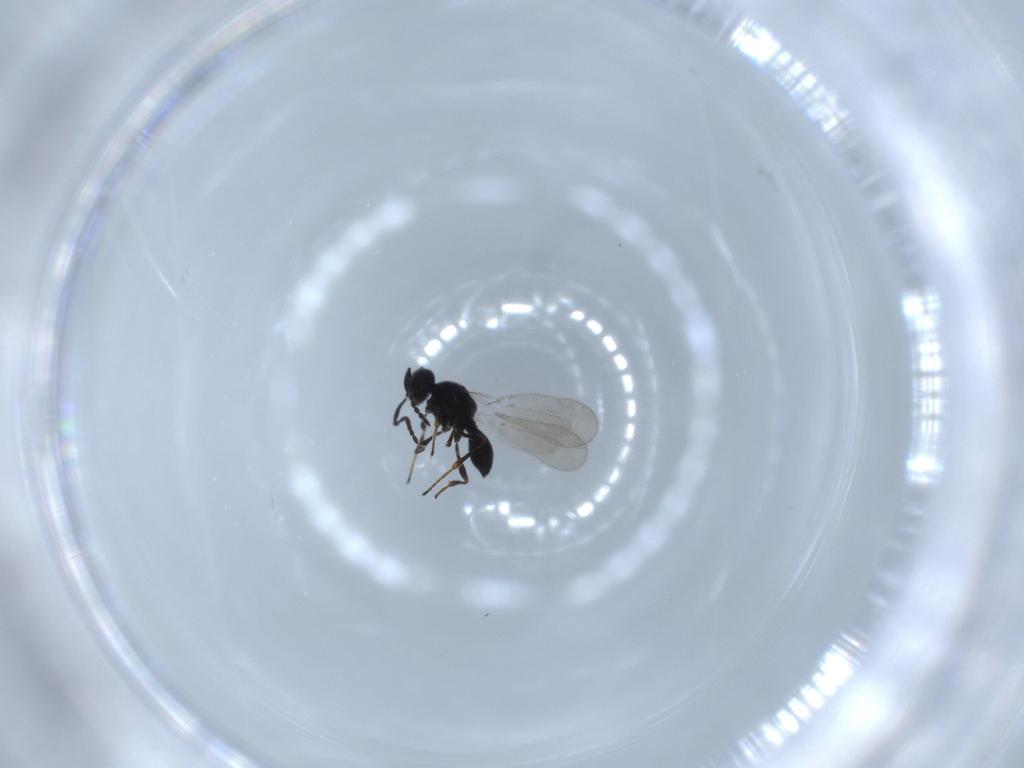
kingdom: Animalia
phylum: Arthropoda
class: Insecta
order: Hymenoptera
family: Platygastridae
